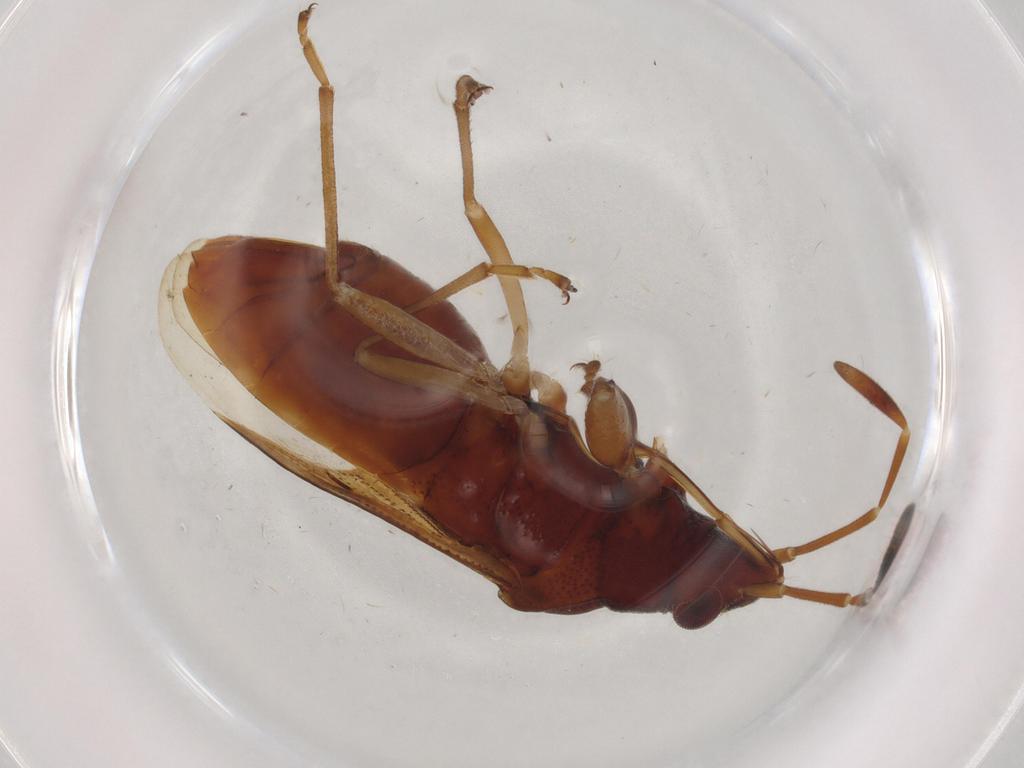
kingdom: Animalia
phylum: Arthropoda
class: Insecta
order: Hemiptera
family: Rhyparochromidae
